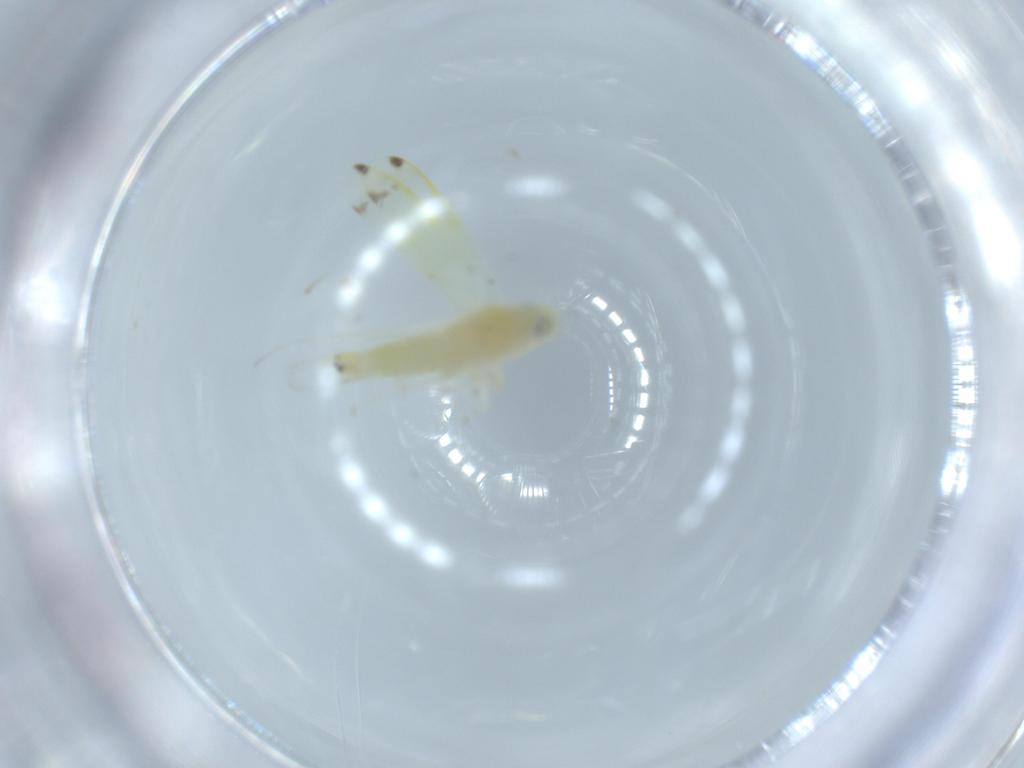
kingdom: Animalia
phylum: Arthropoda
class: Insecta
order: Hemiptera
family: Cicadellidae
